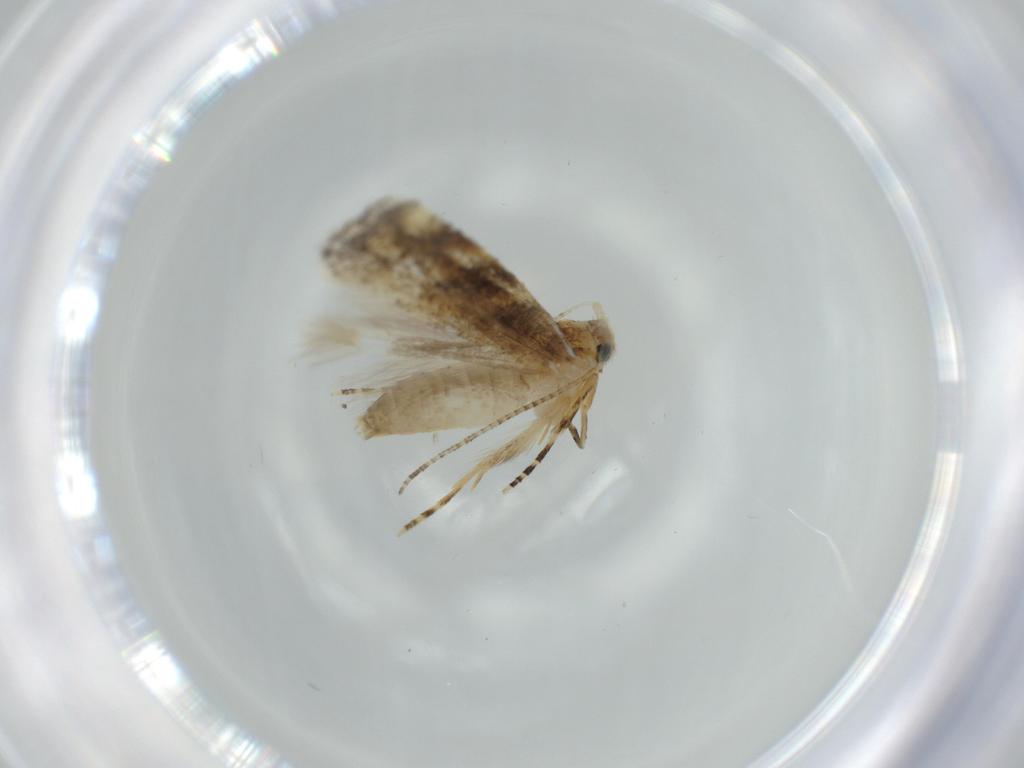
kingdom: Animalia
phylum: Arthropoda
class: Insecta
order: Lepidoptera
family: Bucculatricidae
